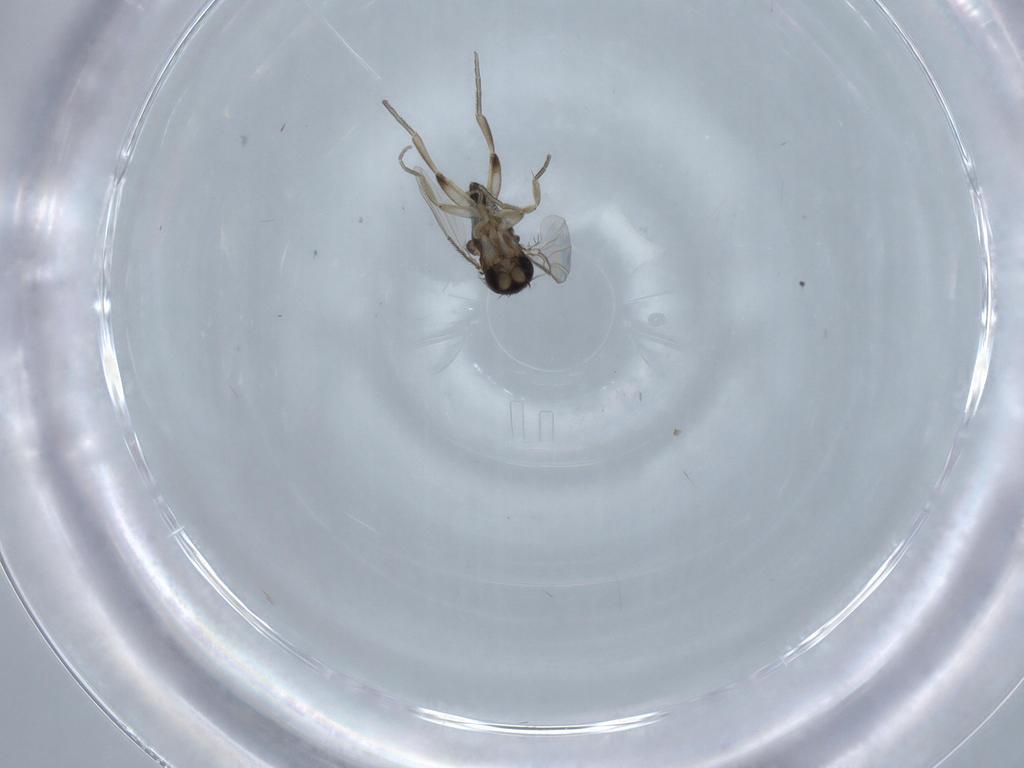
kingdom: Animalia
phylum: Arthropoda
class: Insecta
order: Diptera
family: Phoridae
